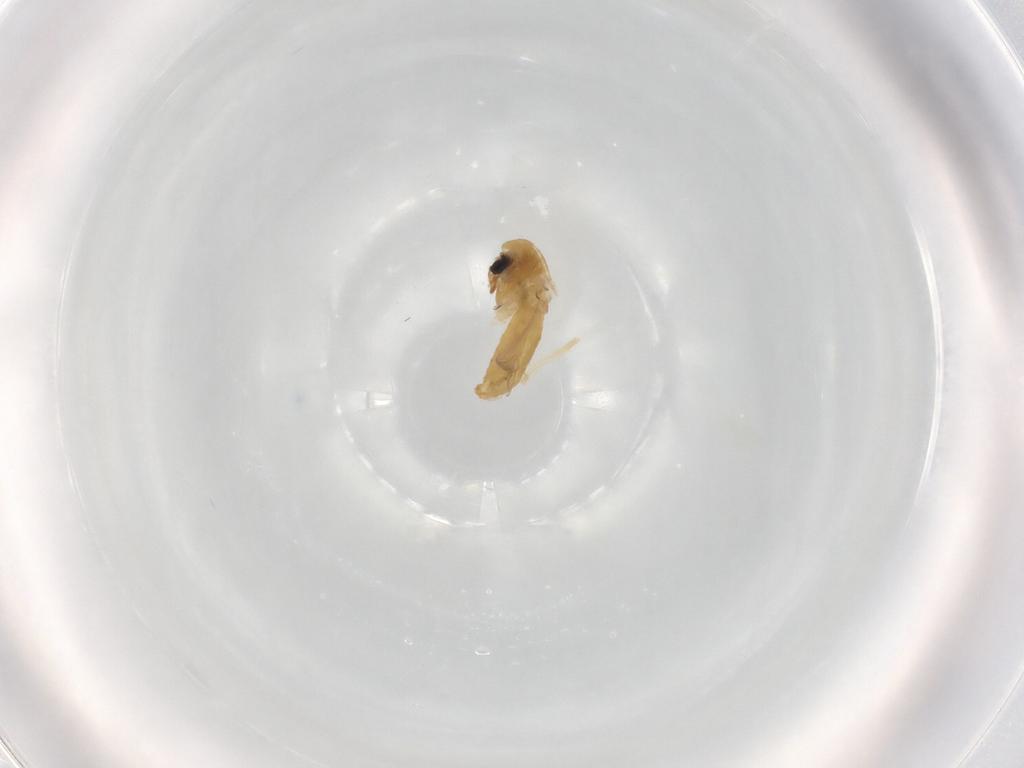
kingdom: Animalia
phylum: Arthropoda
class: Insecta
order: Diptera
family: Chironomidae
